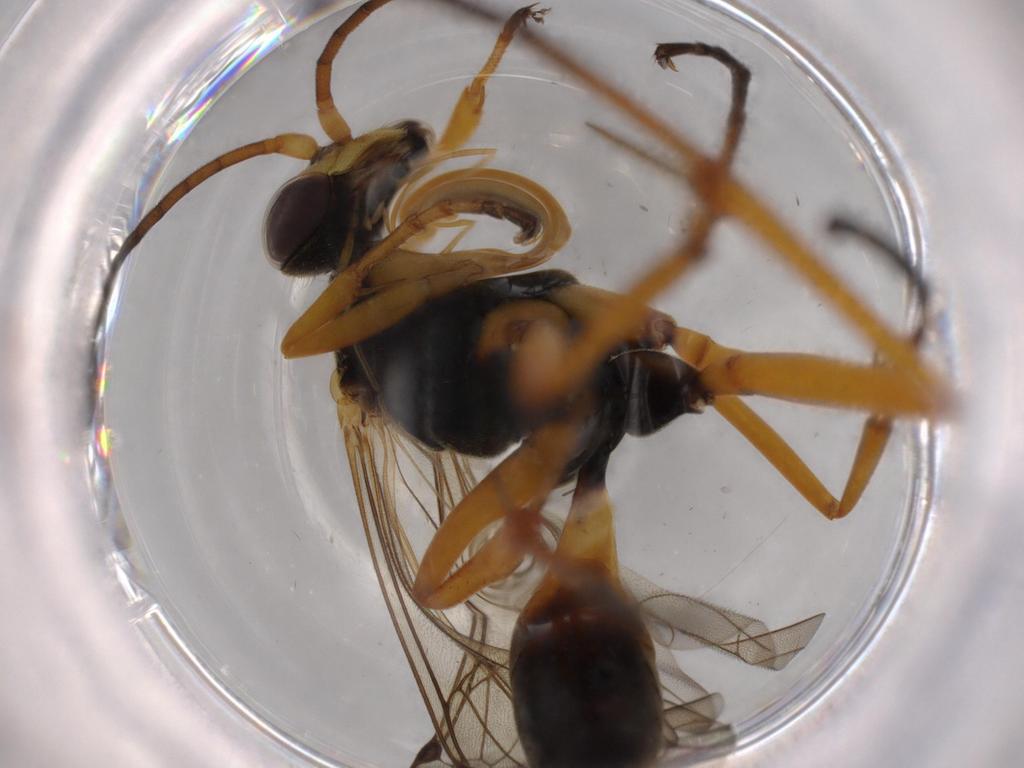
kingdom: Animalia
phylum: Arthropoda
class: Insecta
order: Hymenoptera
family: Pompilidae
